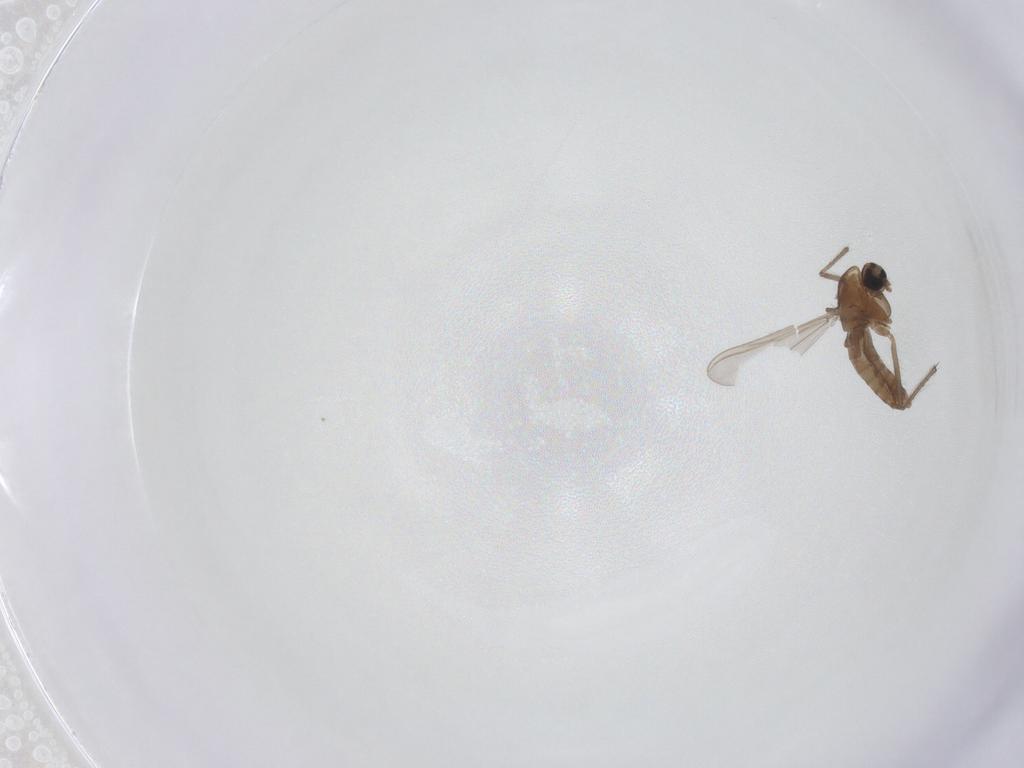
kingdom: Animalia
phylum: Arthropoda
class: Insecta
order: Diptera
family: Chironomidae
